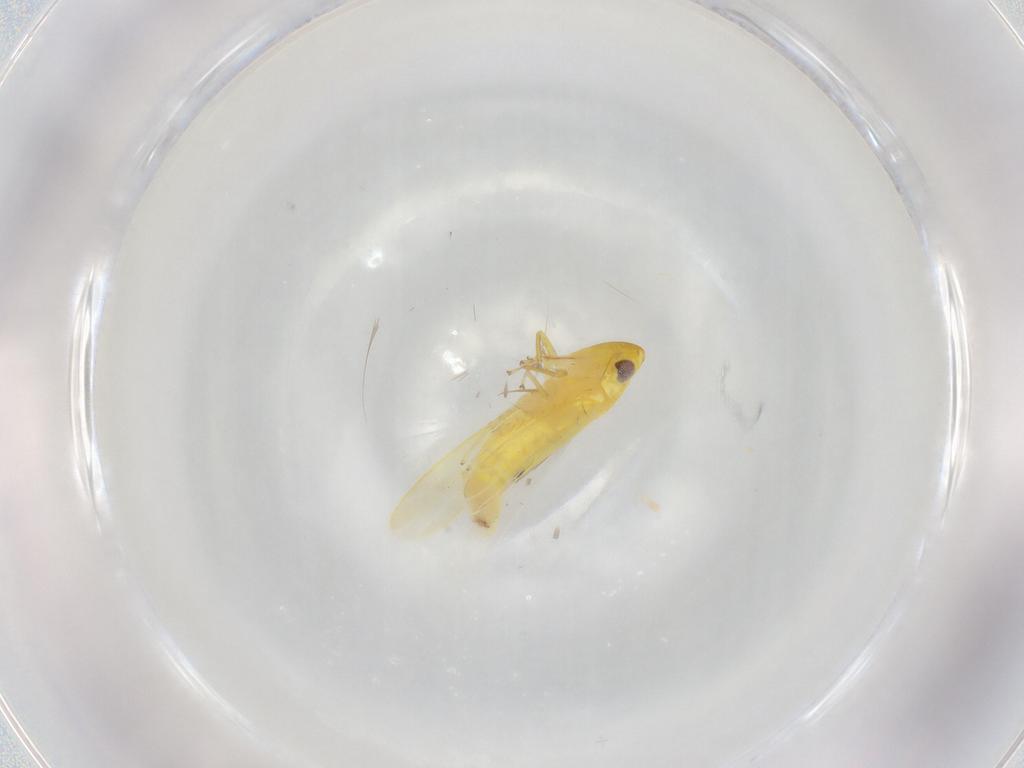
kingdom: Animalia
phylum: Arthropoda
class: Insecta
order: Hemiptera
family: Cicadellidae
